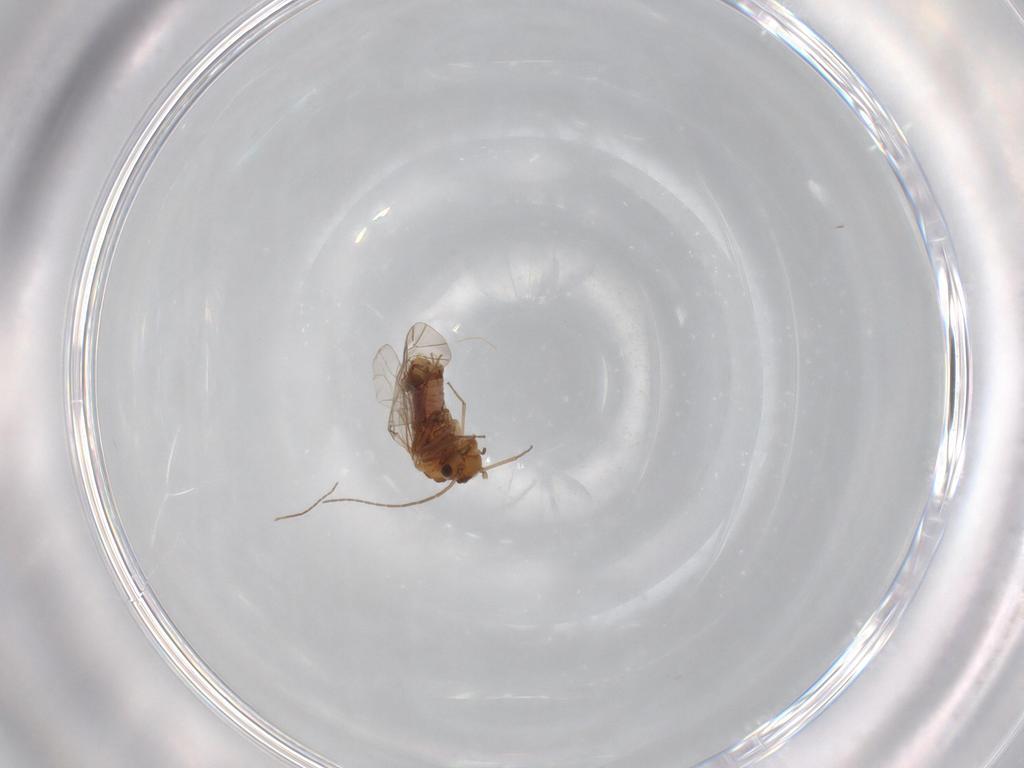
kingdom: Animalia
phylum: Arthropoda
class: Insecta
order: Psocodea
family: Lachesillidae
